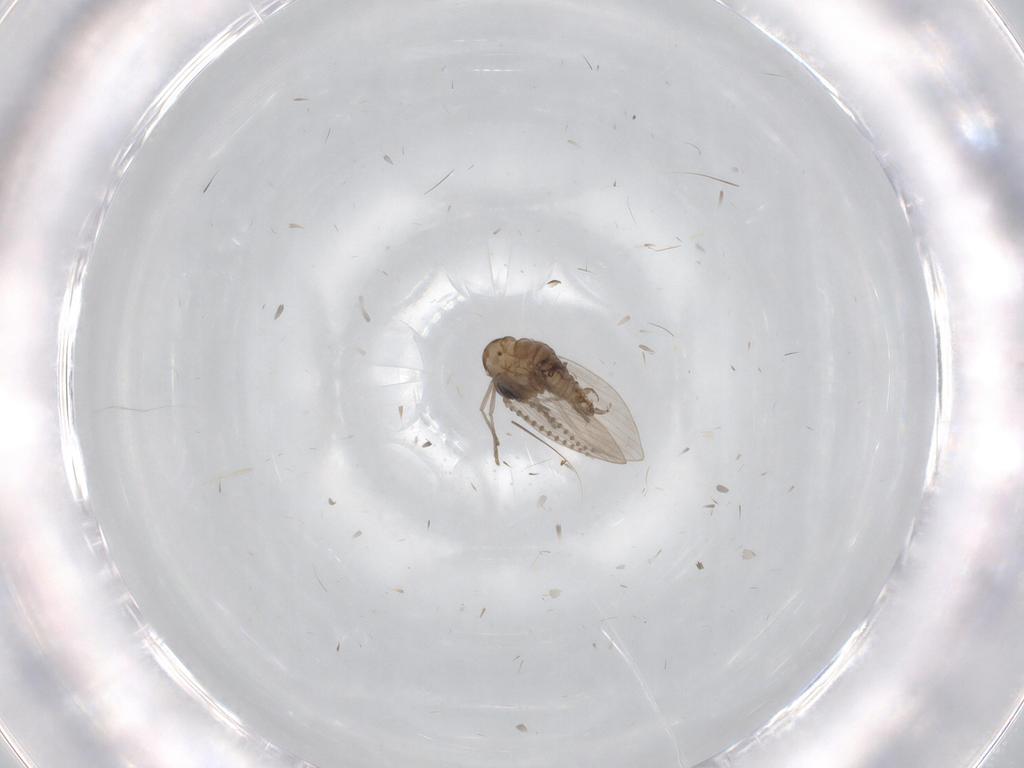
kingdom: Animalia
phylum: Arthropoda
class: Insecta
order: Diptera
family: Psychodidae
